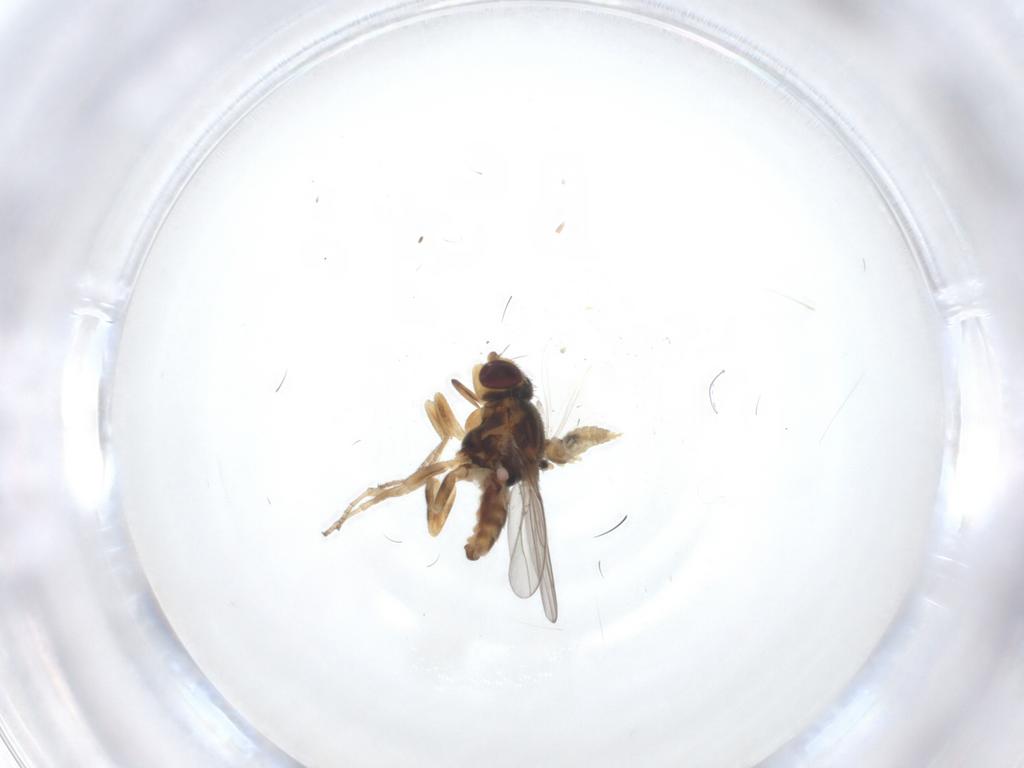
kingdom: Animalia
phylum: Arthropoda
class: Insecta
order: Diptera
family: Cecidomyiidae
